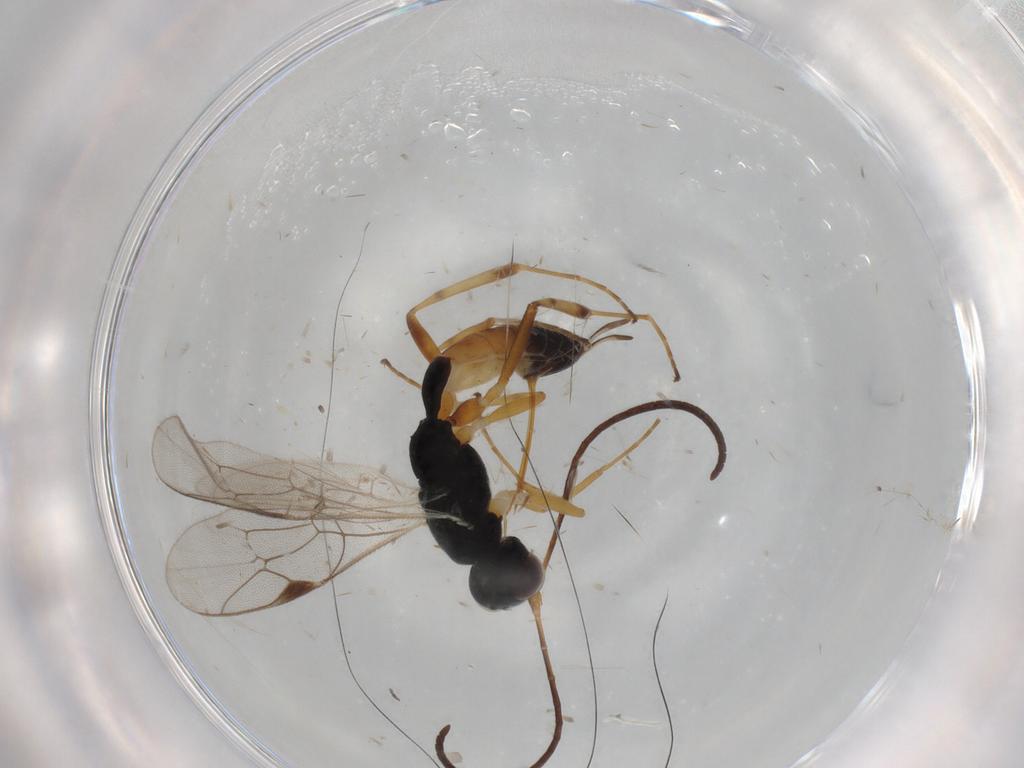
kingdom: Animalia
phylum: Arthropoda
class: Insecta
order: Hymenoptera
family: Ichneumonidae
